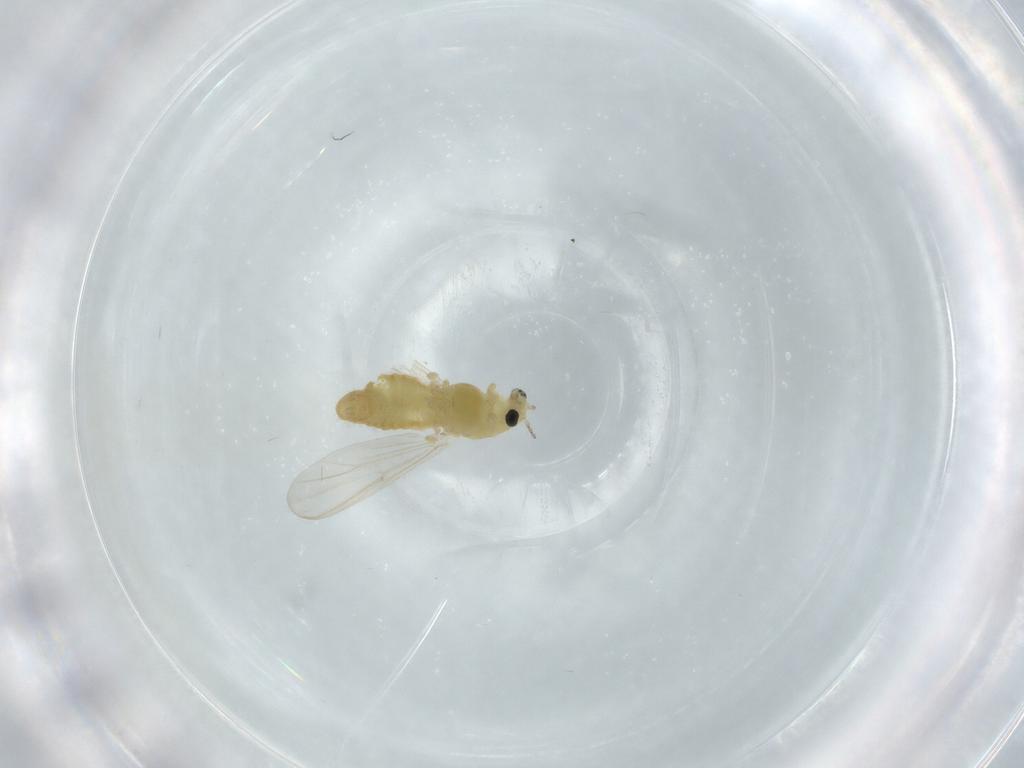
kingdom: Animalia
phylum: Arthropoda
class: Insecta
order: Diptera
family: Chironomidae
